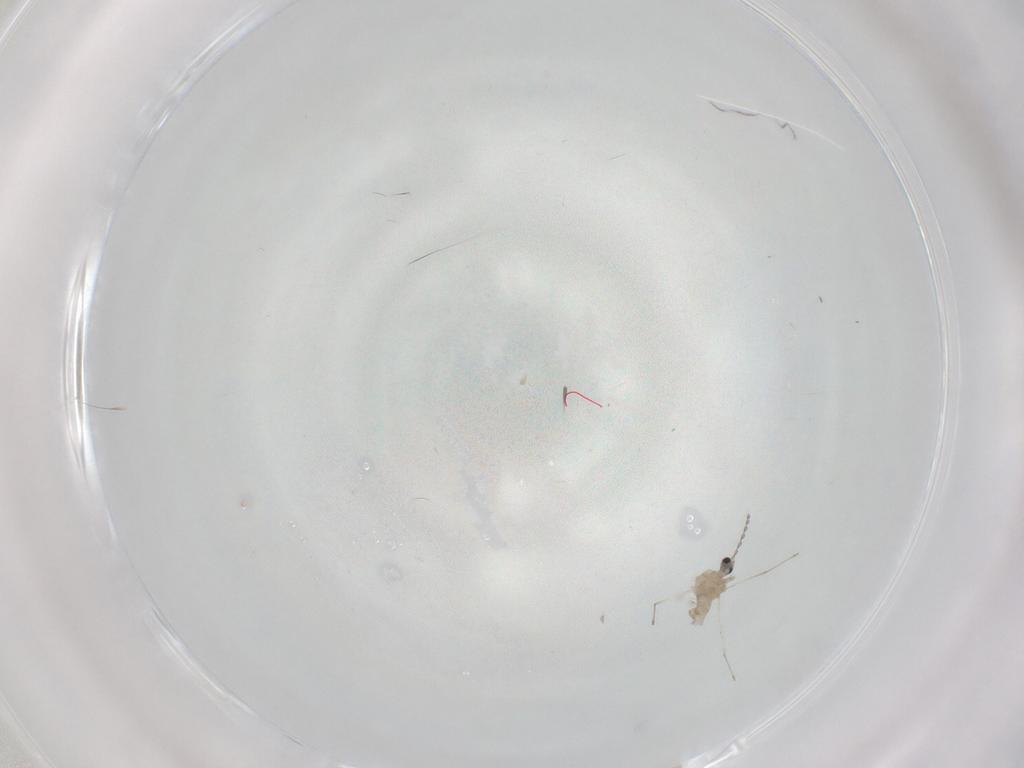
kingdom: Animalia
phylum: Arthropoda
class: Insecta
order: Diptera
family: Cecidomyiidae
